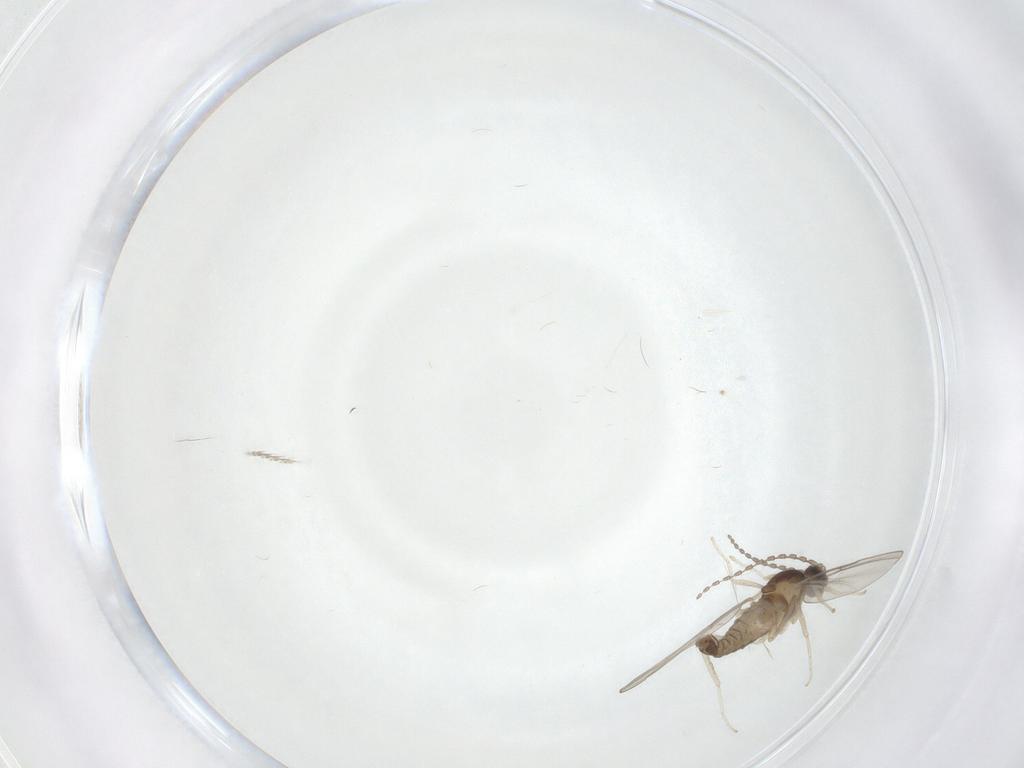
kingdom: Animalia
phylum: Arthropoda
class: Insecta
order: Diptera
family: Cecidomyiidae
